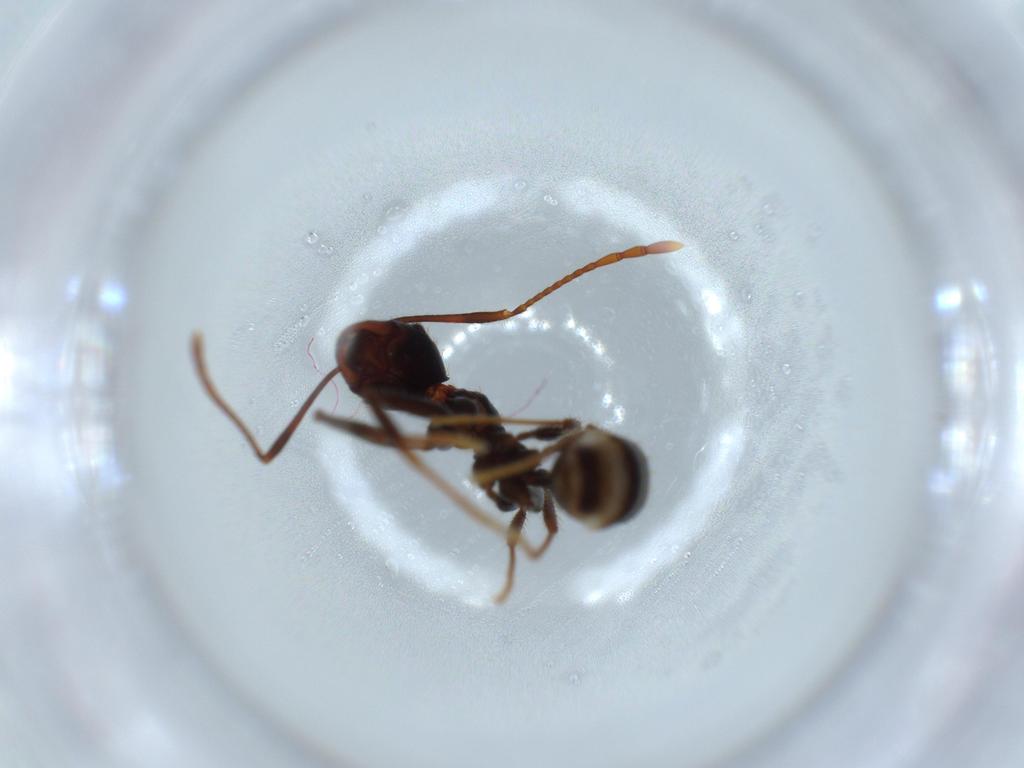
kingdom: Animalia
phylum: Arthropoda
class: Insecta
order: Hymenoptera
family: Formicidae
